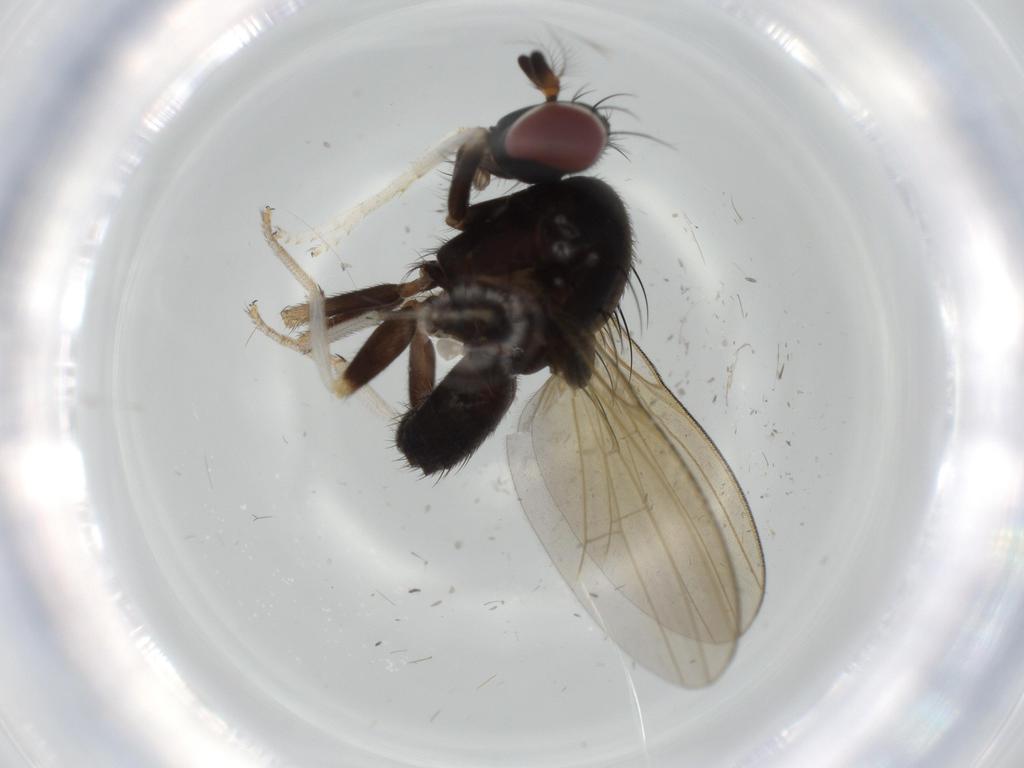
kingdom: Animalia
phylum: Arthropoda
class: Insecta
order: Diptera
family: Lauxaniidae
